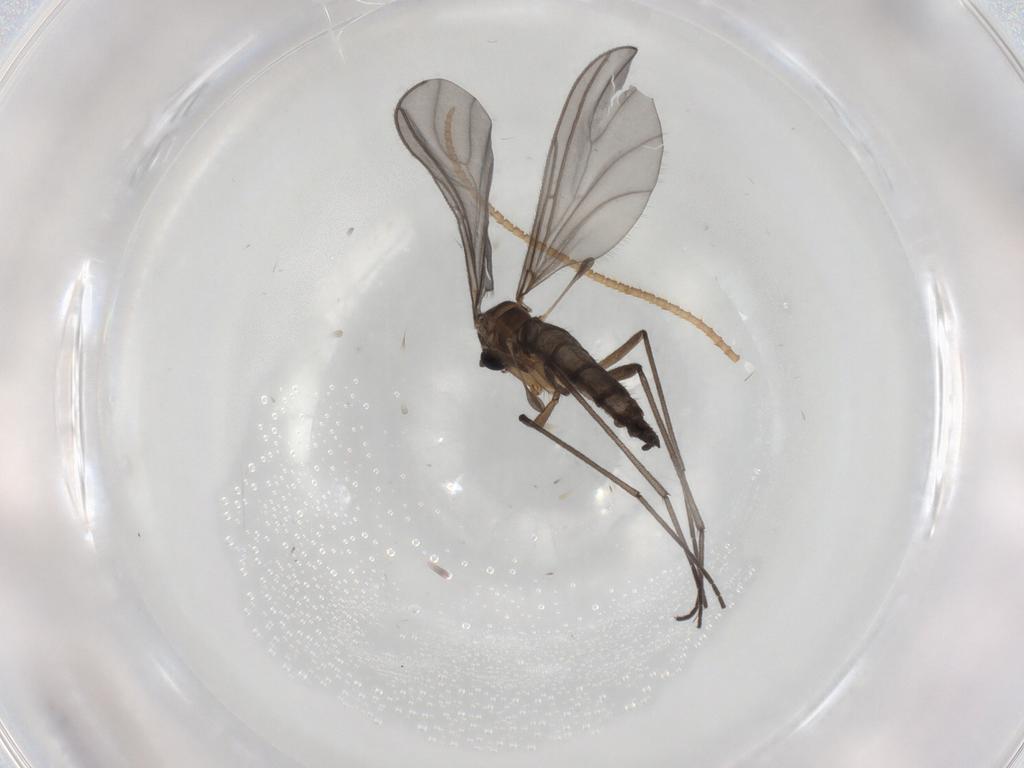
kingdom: Animalia
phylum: Arthropoda
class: Insecta
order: Diptera
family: Sciaridae
